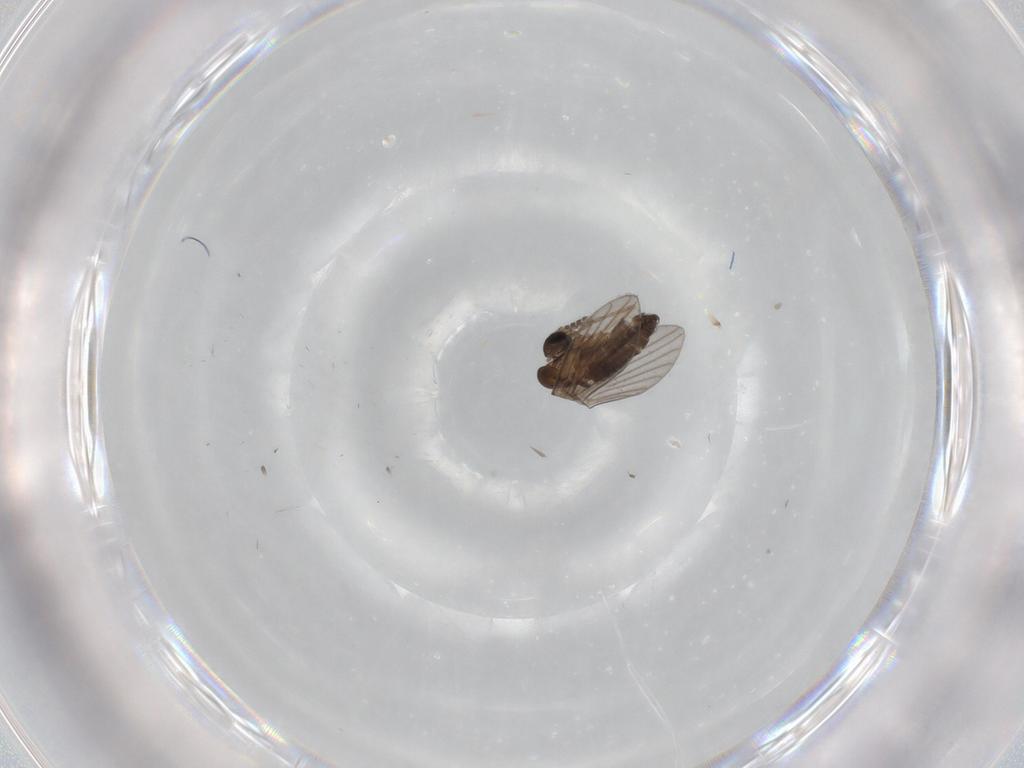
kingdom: Animalia
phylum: Arthropoda
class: Insecta
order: Diptera
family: Psychodidae
